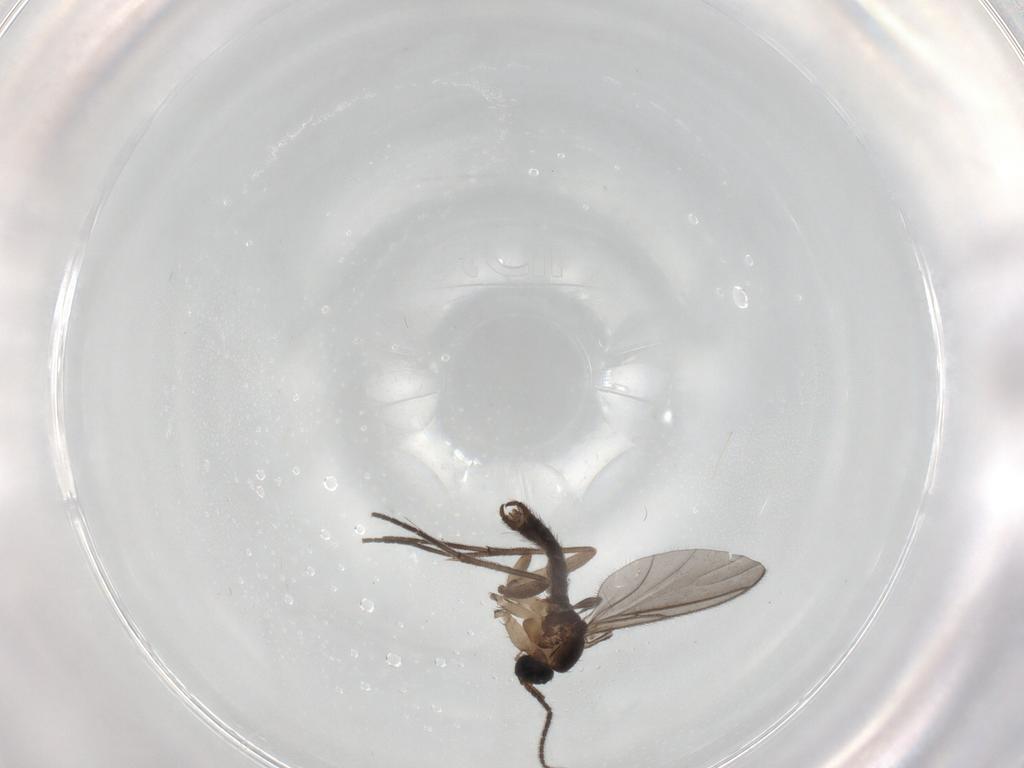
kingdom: Animalia
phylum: Arthropoda
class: Insecta
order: Diptera
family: Sciaridae
